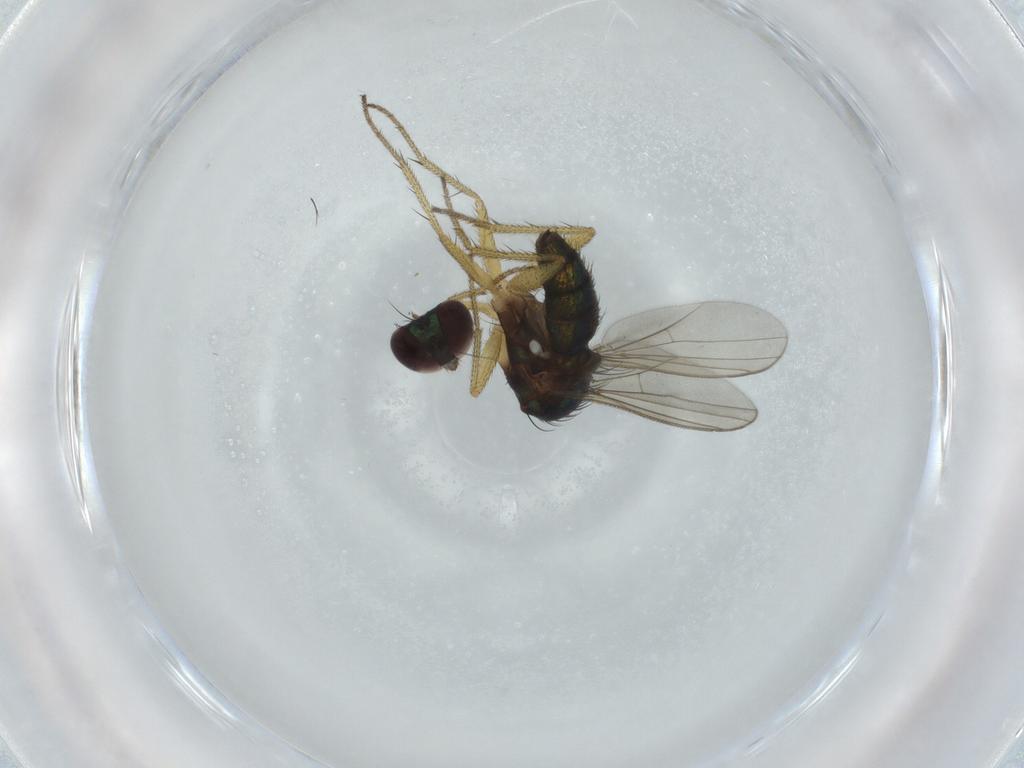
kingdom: Animalia
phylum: Arthropoda
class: Insecta
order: Diptera
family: Dolichopodidae
